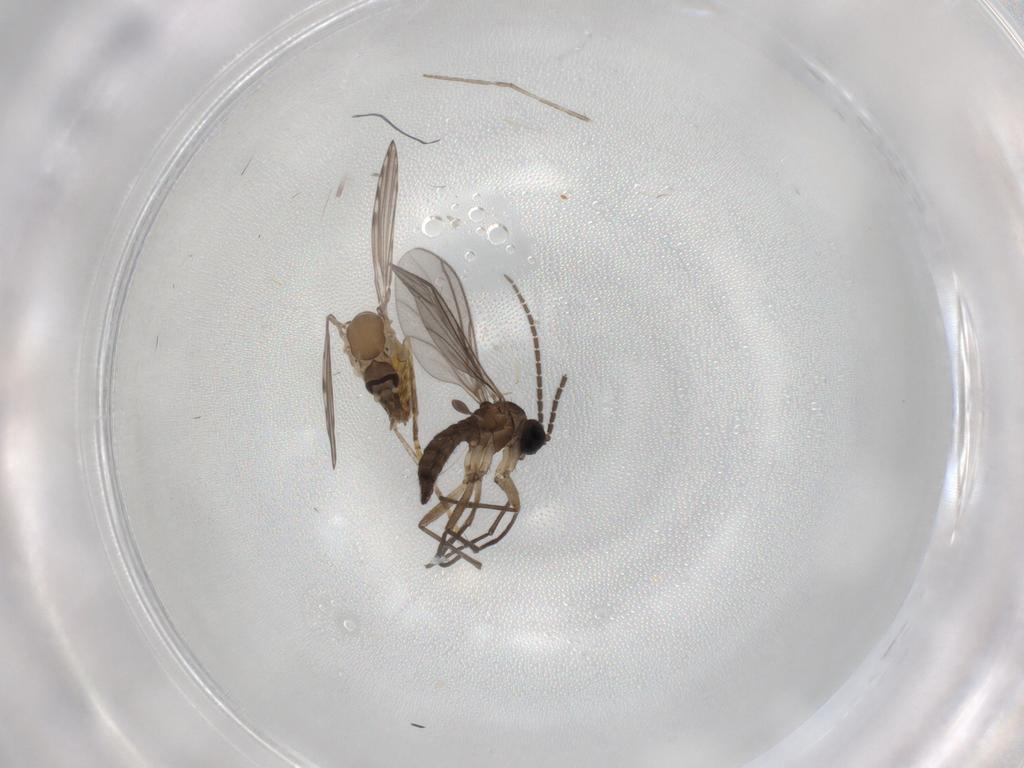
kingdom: Animalia
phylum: Arthropoda
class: Insecta
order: Diptera
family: Psychodidae
